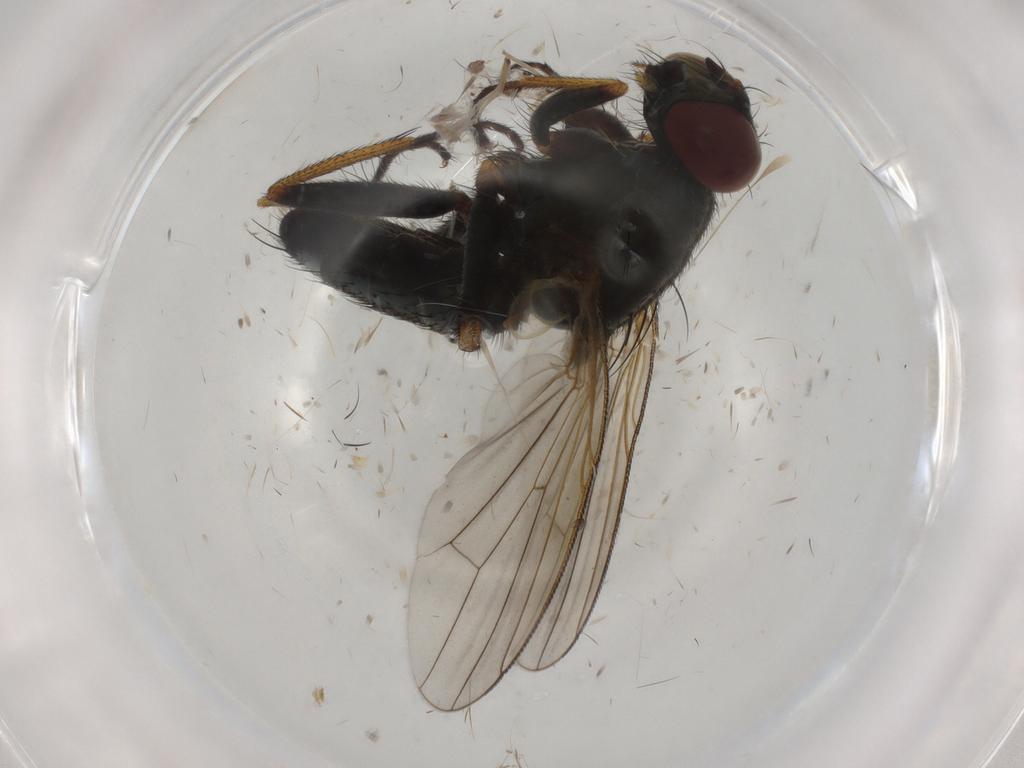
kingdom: Animalia
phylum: Arthropoda
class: Insecta
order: Diptera
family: Muscidae
